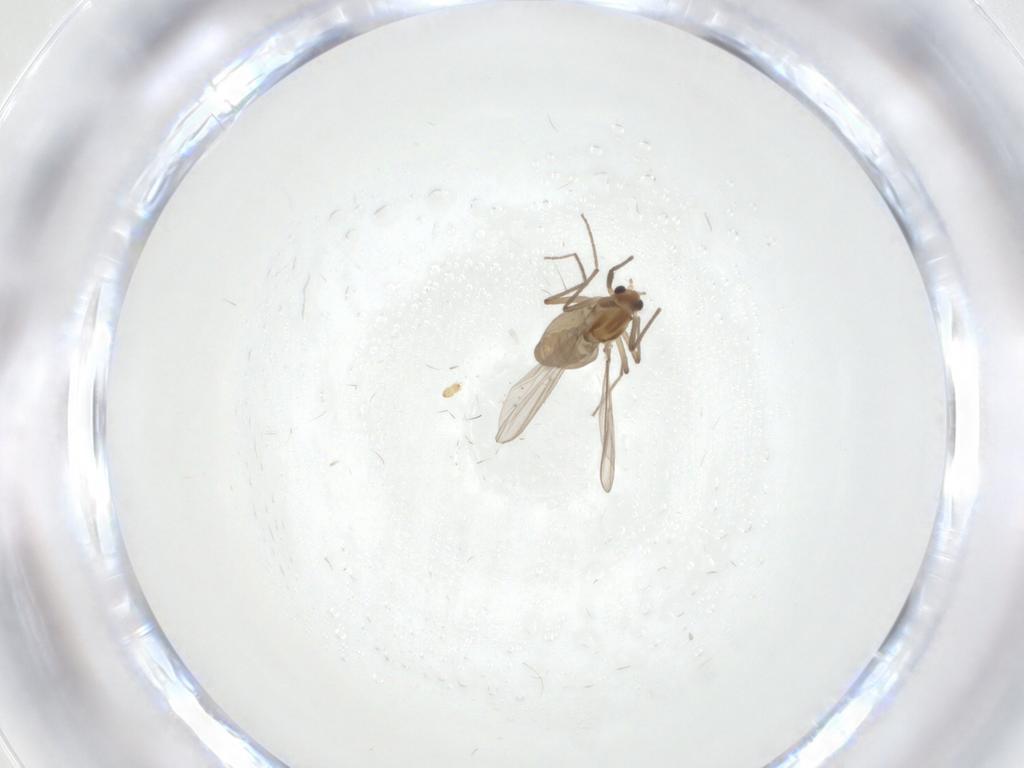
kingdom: Animalia
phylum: Arthropoda
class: Insecta
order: Diptera
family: Chironomidae
